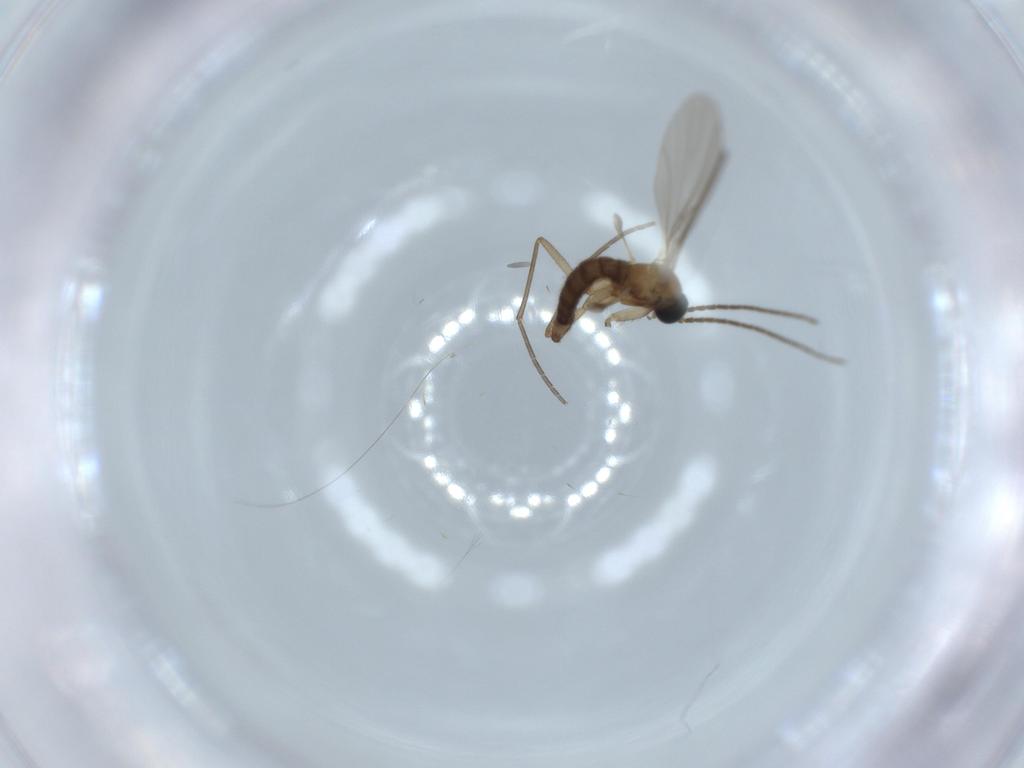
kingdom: Animalia
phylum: Arthropoda
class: Insecta
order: Diptera
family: Sciaridae
